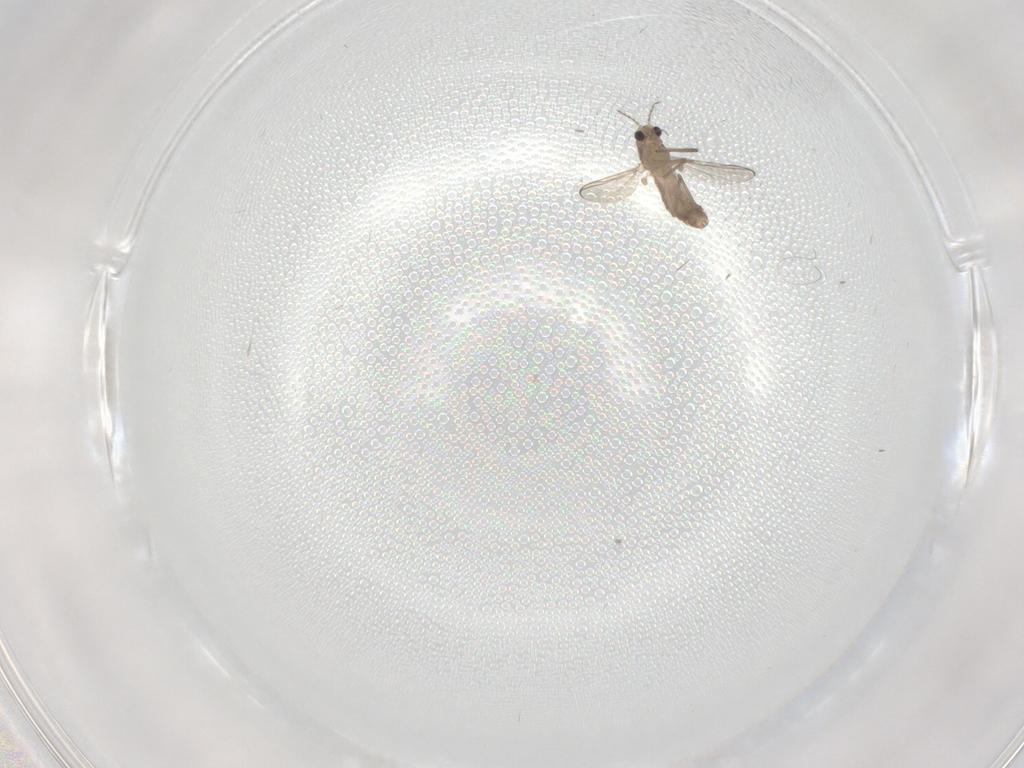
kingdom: Animalia
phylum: Arthropoda
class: Insecta
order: Diptera
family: Chironomidae
